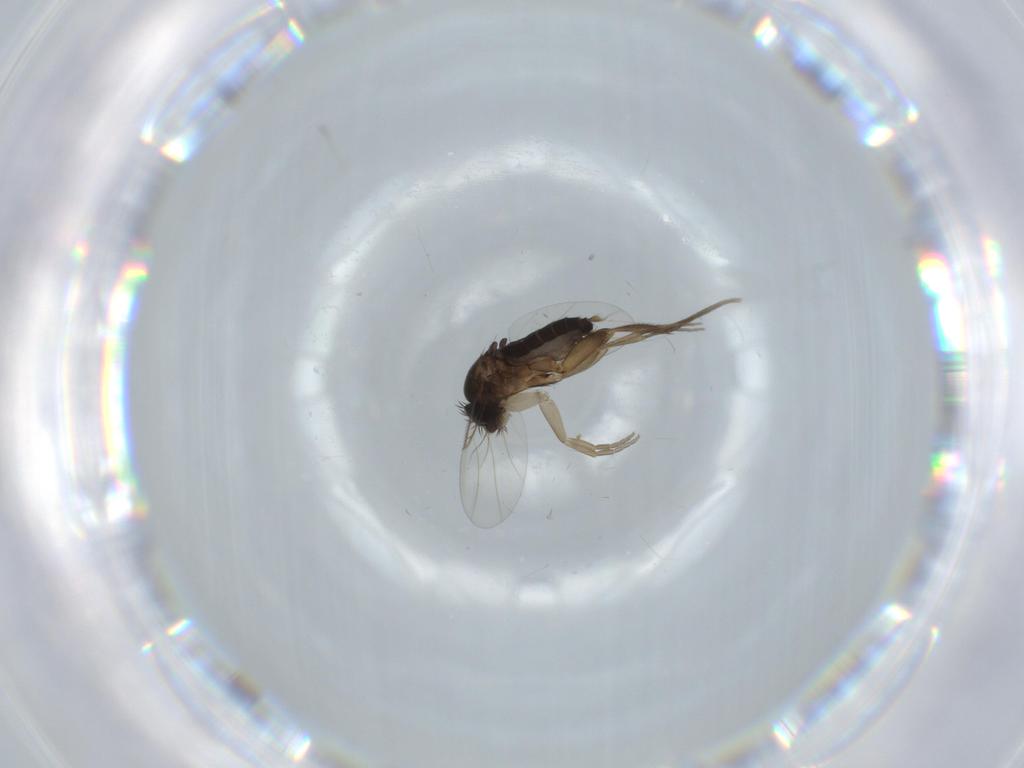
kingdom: Animalia
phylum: Arthropoda
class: Insecta
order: Diptera
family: Phoridae
